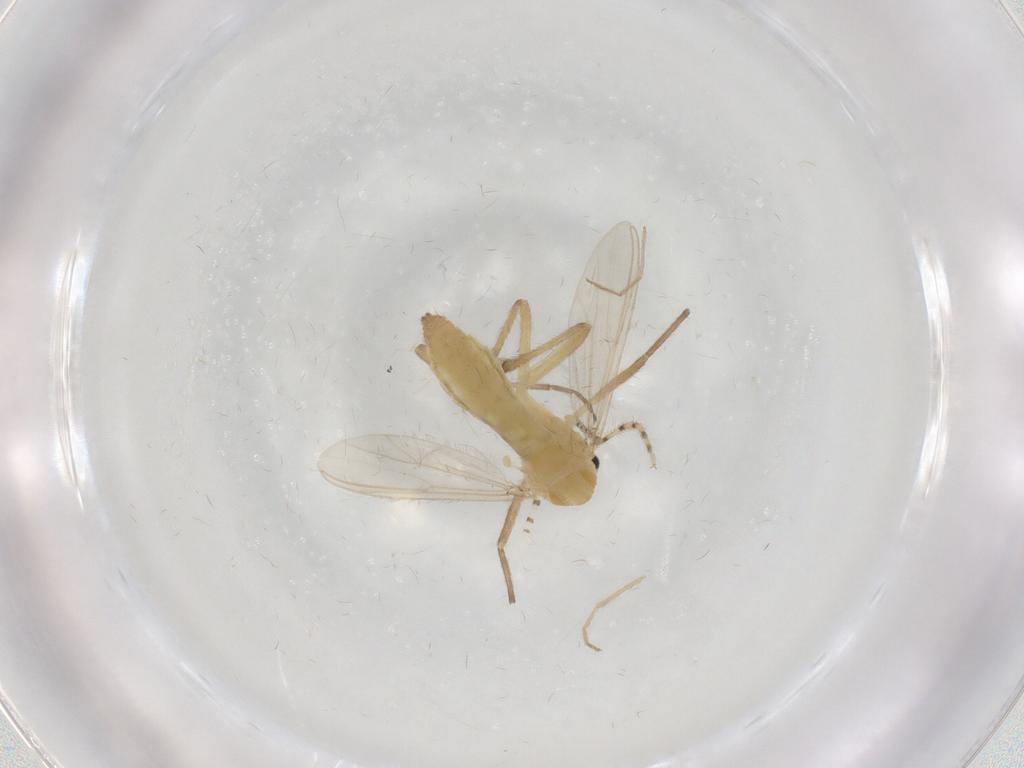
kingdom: Animalia
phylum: Arthropoda
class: Insecta
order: Diptera
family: Chironomidae
